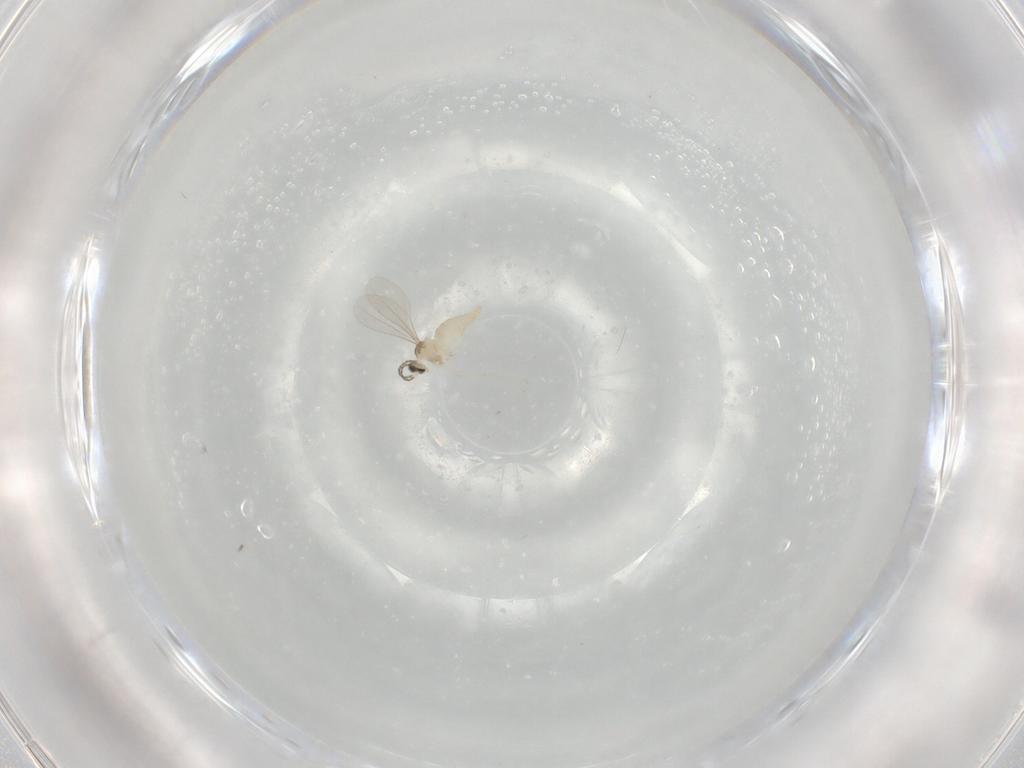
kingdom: Animalia
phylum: Arthropoda
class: Insecta
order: Diptera
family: Cecidomyiidae
